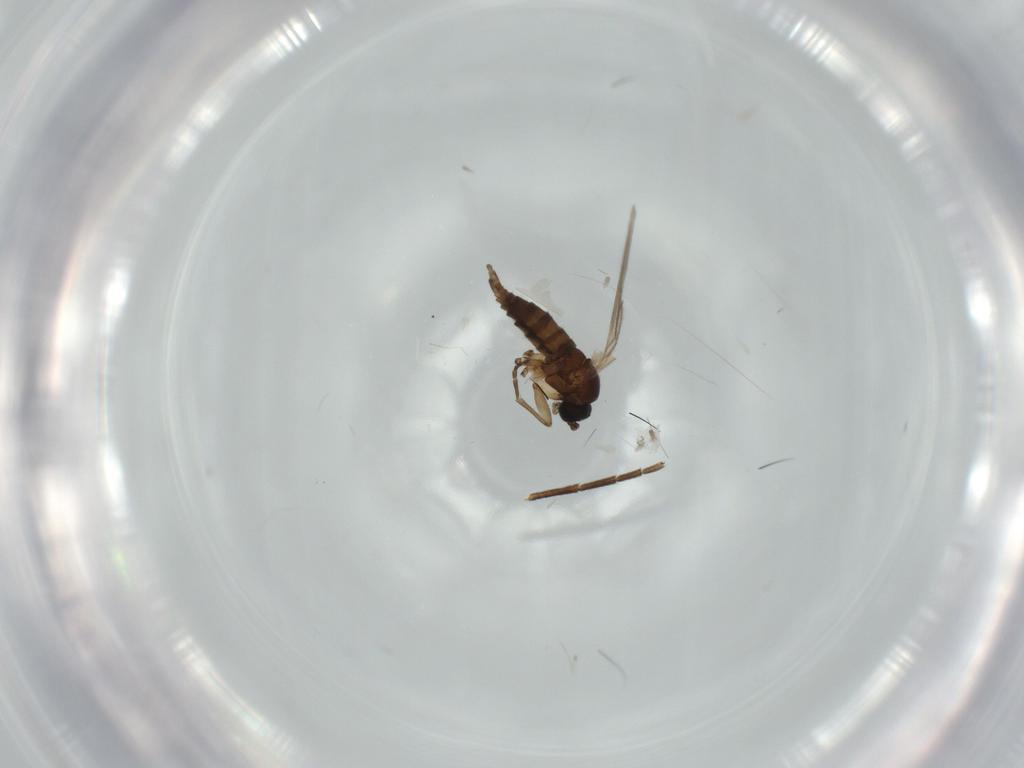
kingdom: Animalia
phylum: Arthropoda
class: Insecta
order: Diptera
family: Sciaridae
